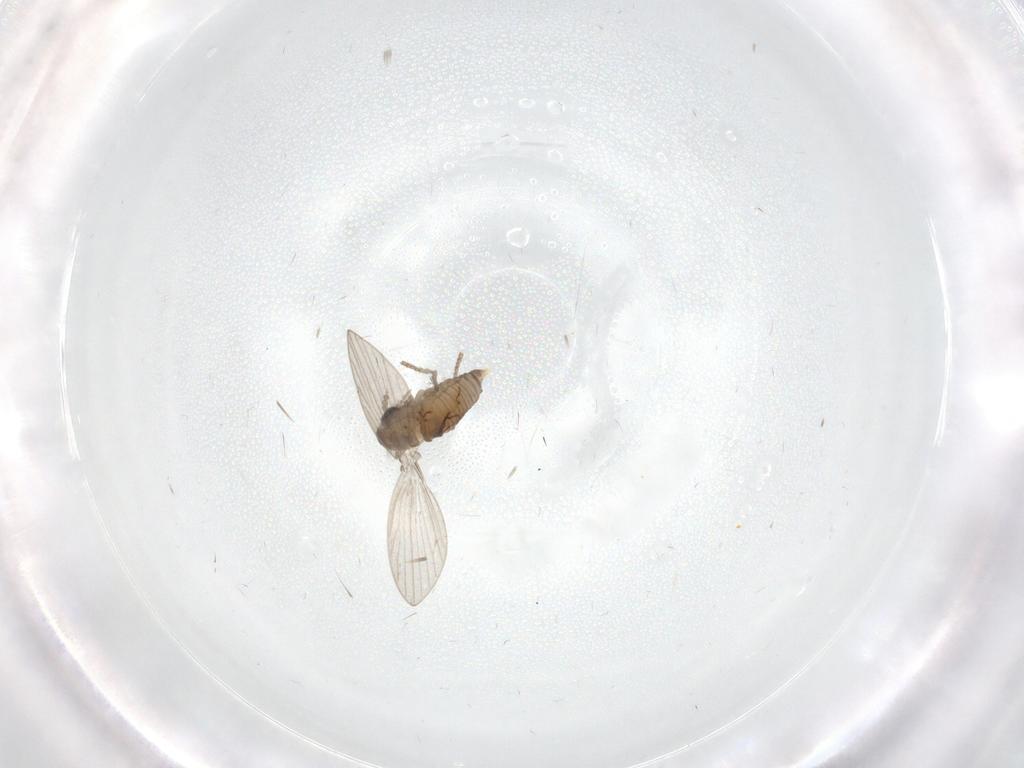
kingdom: Animalia
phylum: Arthropoda
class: Insecta
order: Diptera
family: Psychodidae
